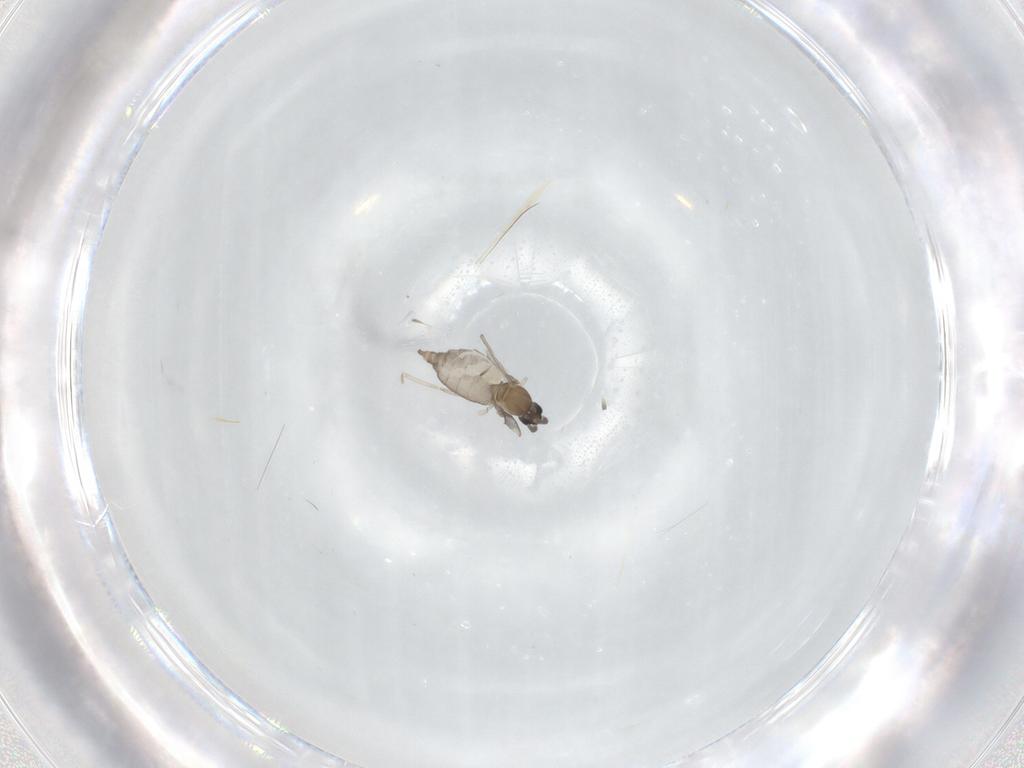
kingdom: Animalia
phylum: Arthropoda
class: Insecta
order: Diptera
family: Cecidomyiidae
